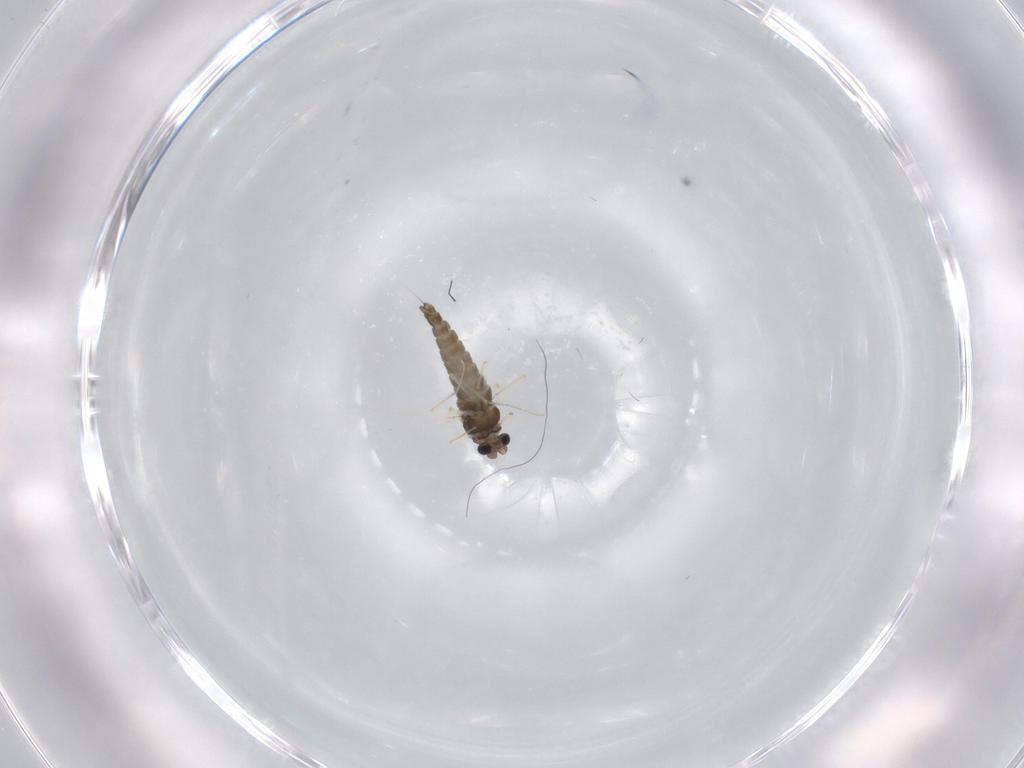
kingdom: Animalia
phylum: Arthropoda
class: Insecta
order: Diptera
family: Chironomidae
